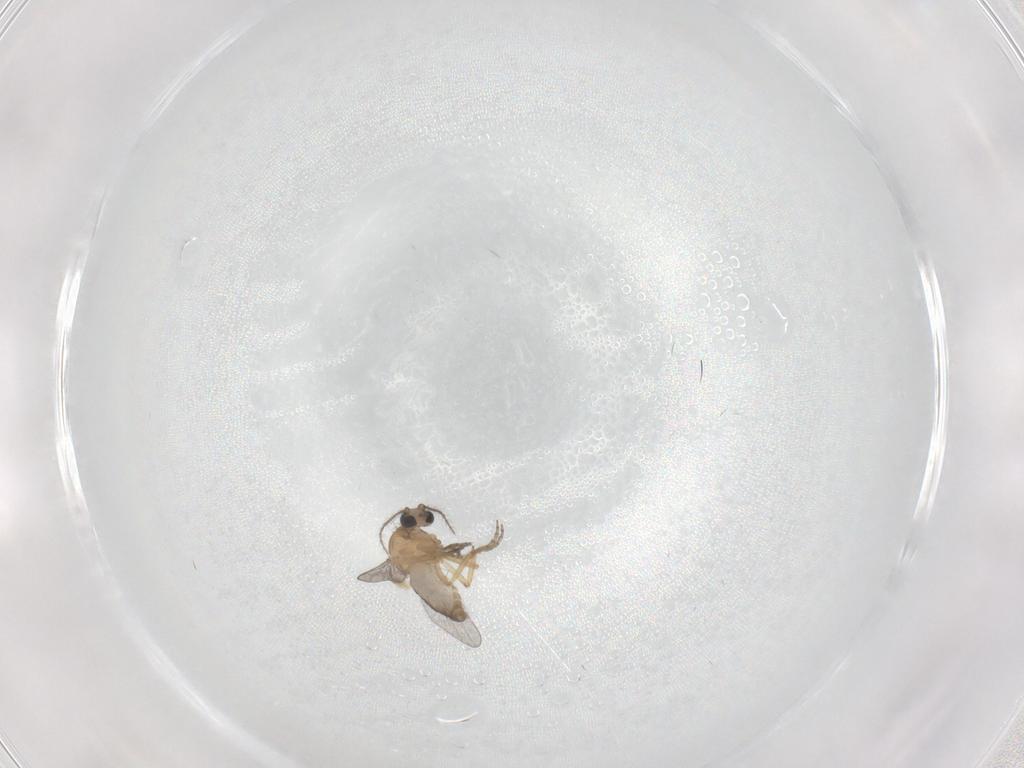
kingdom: Animalia
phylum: Arthropoda
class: Insecta
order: Diptera
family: Ceratopogonidae
